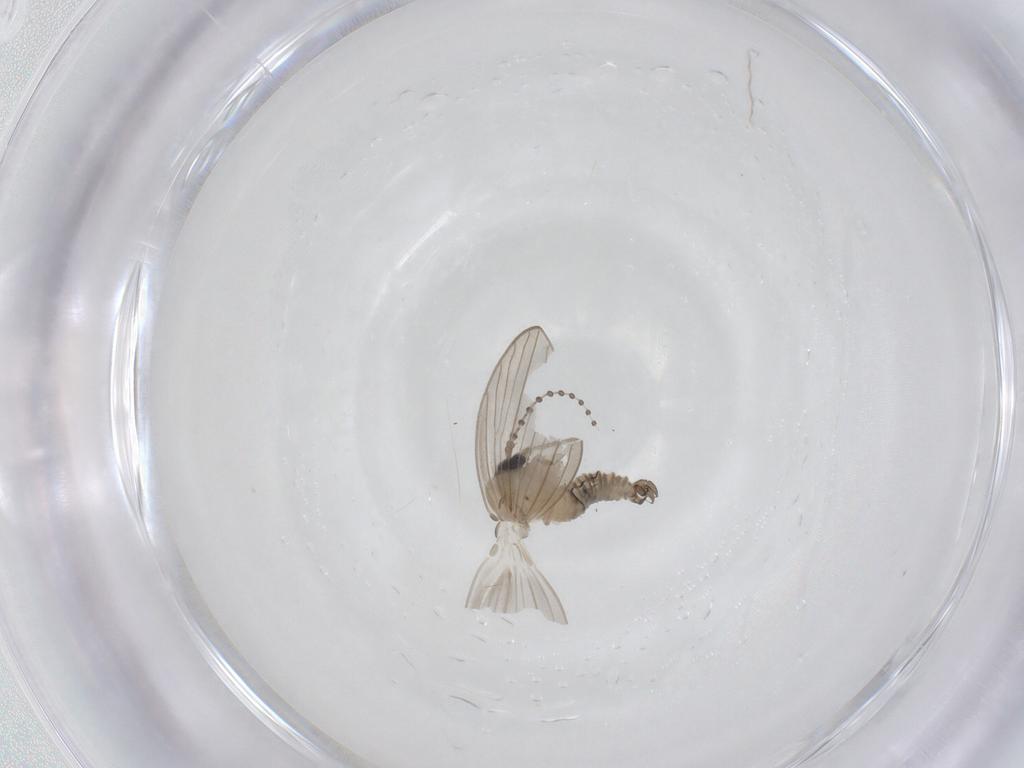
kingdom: Animalia
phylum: Arthropoda
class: Insecta
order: Diptera
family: Psychodidae
